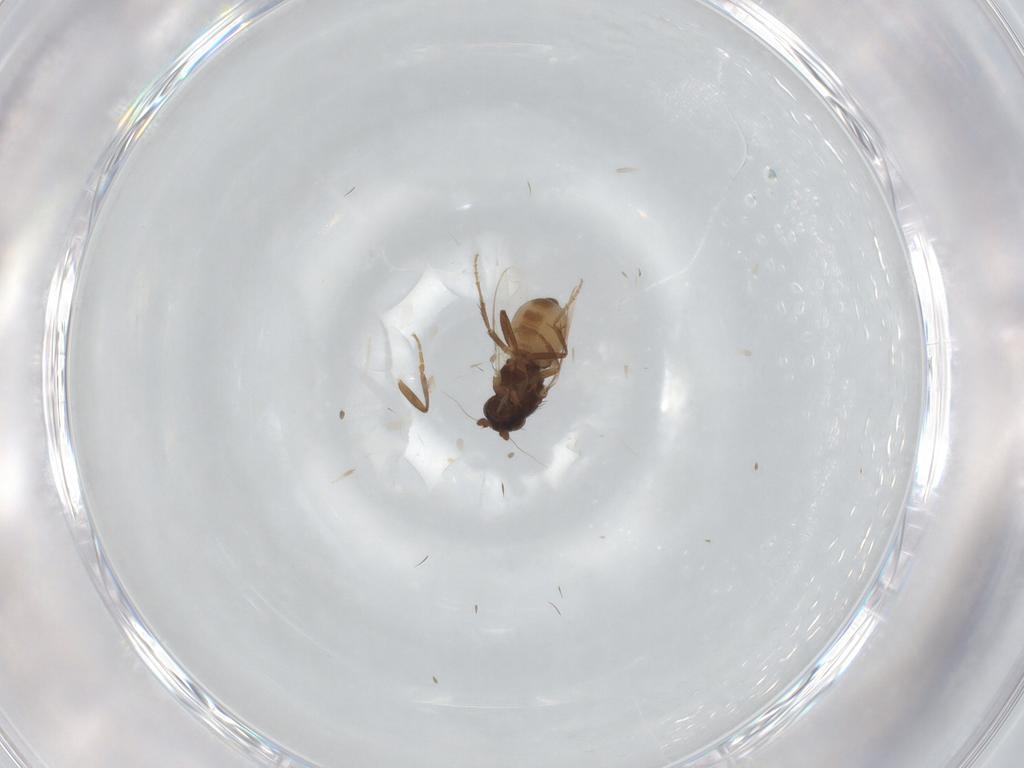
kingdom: Animalia
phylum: Arthropoda
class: Insecta
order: Diptera
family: Sphaeroceridae
